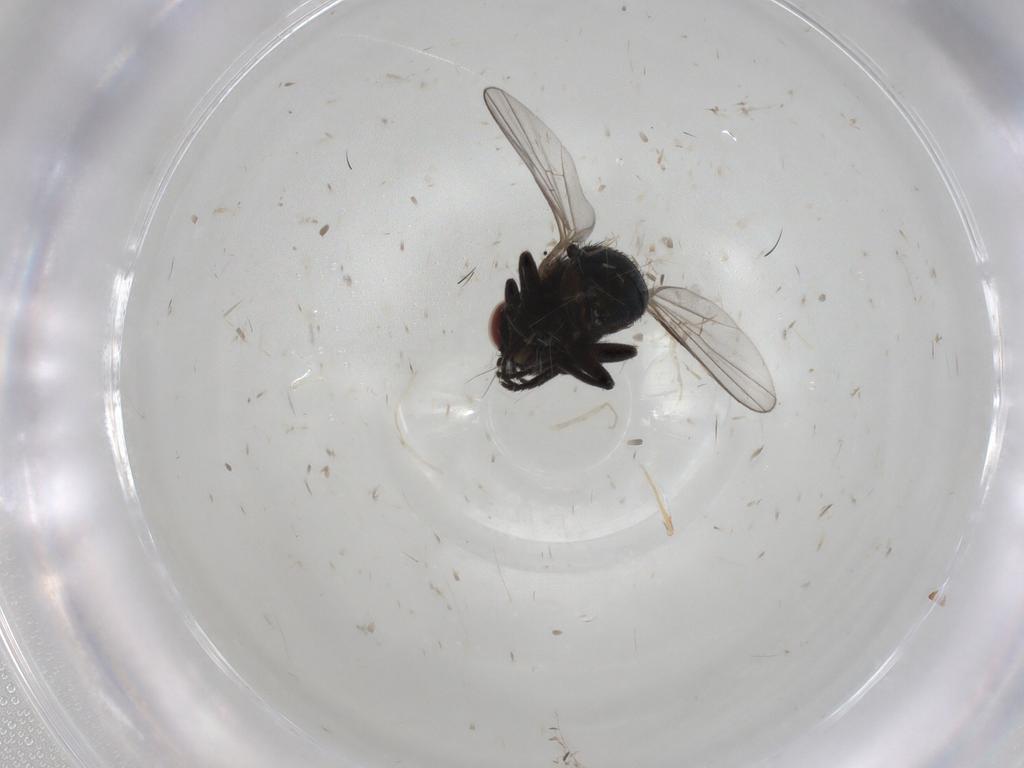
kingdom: Animalia
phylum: Arthropoda
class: Insecta
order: Diptera
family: Agromyzidae
